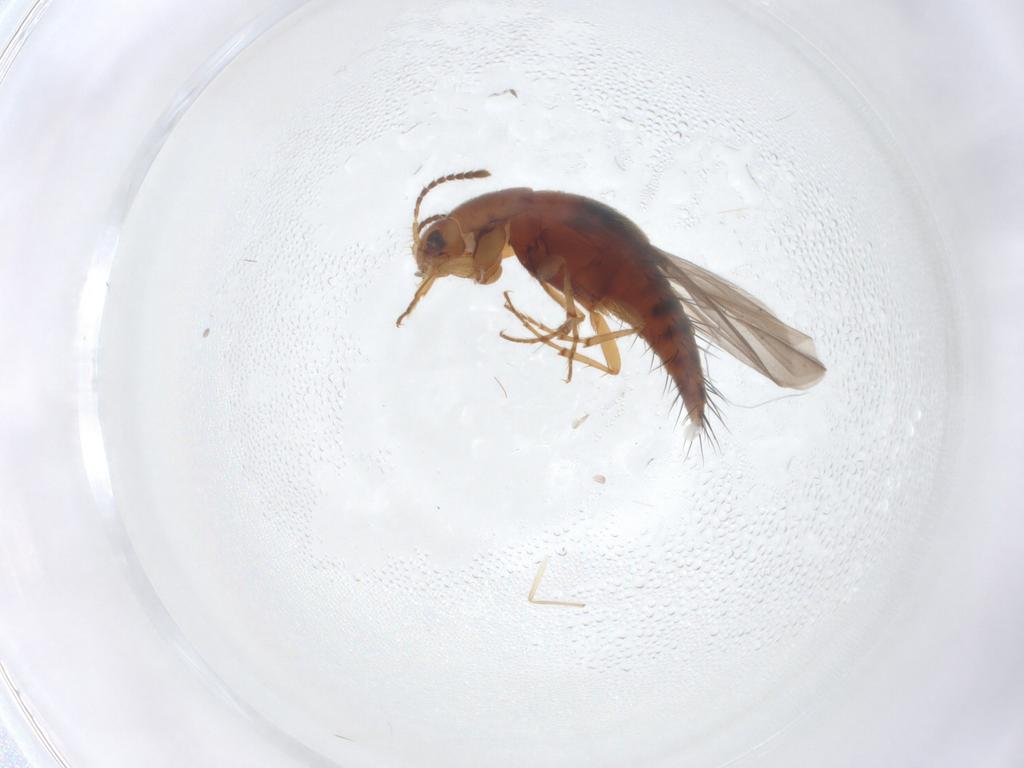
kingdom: Animalia
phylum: Arthropoda
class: Insecta
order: Coleoptera
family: Staphylinidae
